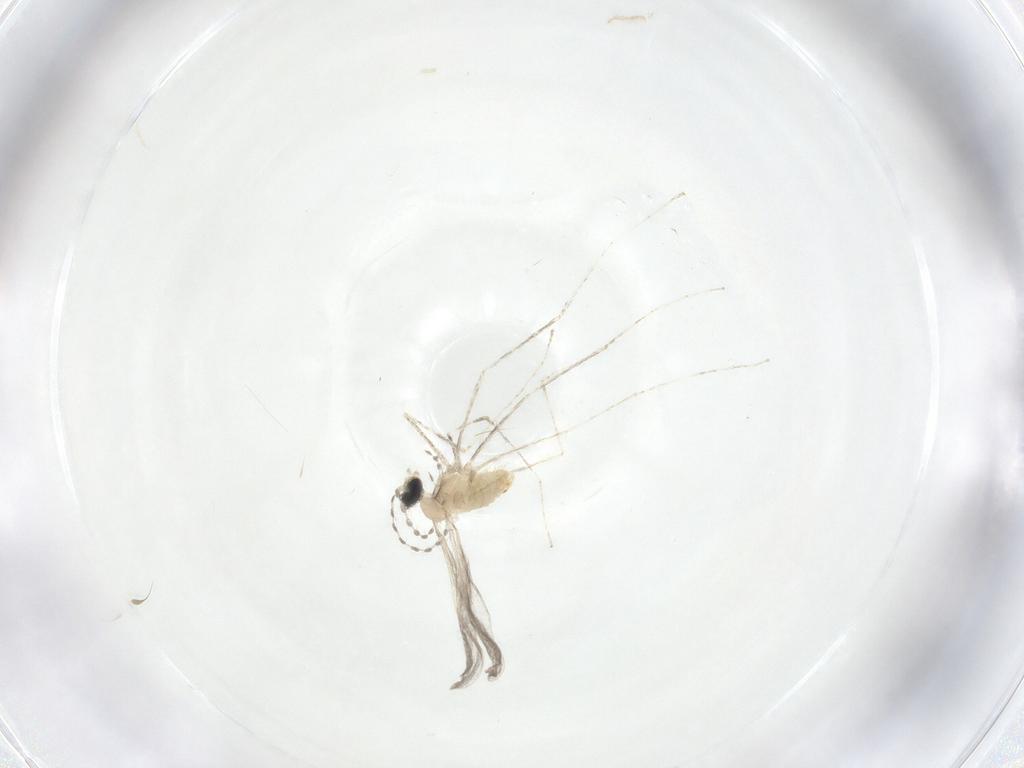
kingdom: Animalia
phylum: Arthropoda
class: Insecta
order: Diptera
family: Cecidomyiidae
